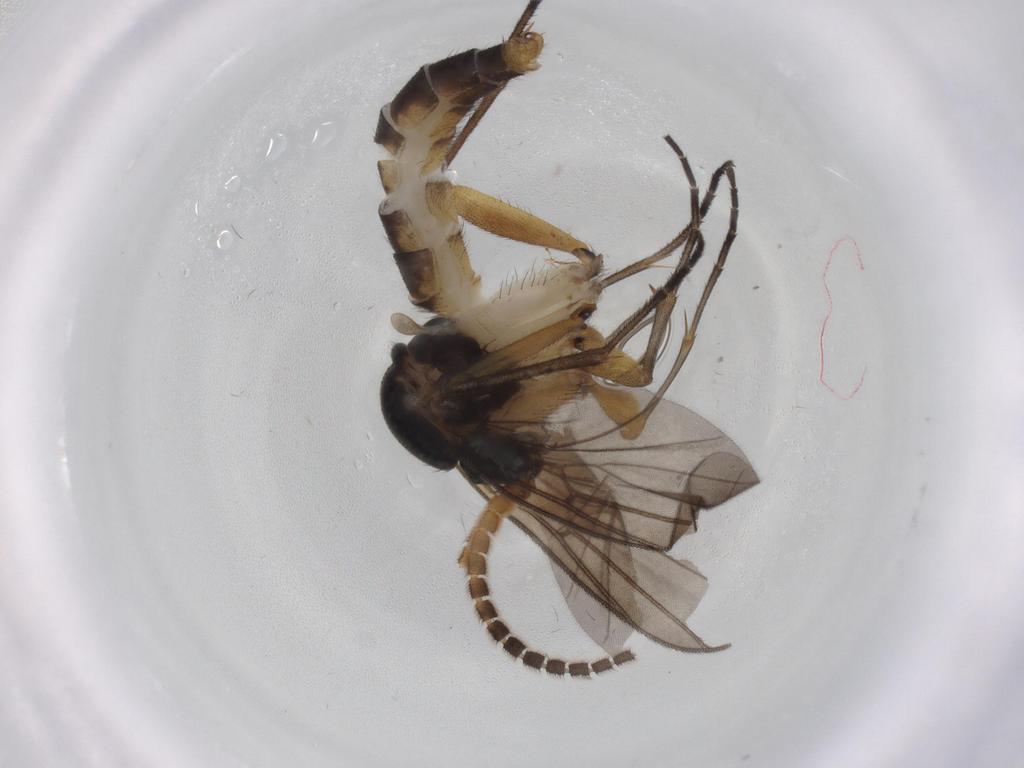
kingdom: Animalia
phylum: Arthropoda
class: Insecta
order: Diptera
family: Mycetophilidae
